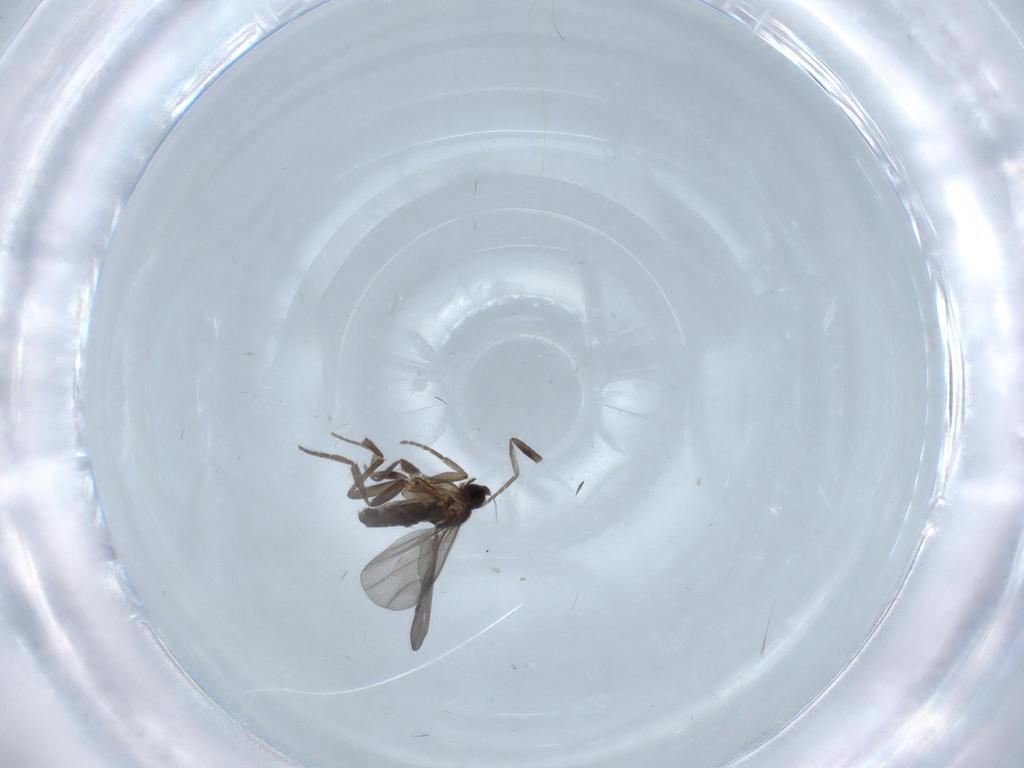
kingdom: Animalia
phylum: Arthropoda
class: Insecta
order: Diptera
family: Phoridae
